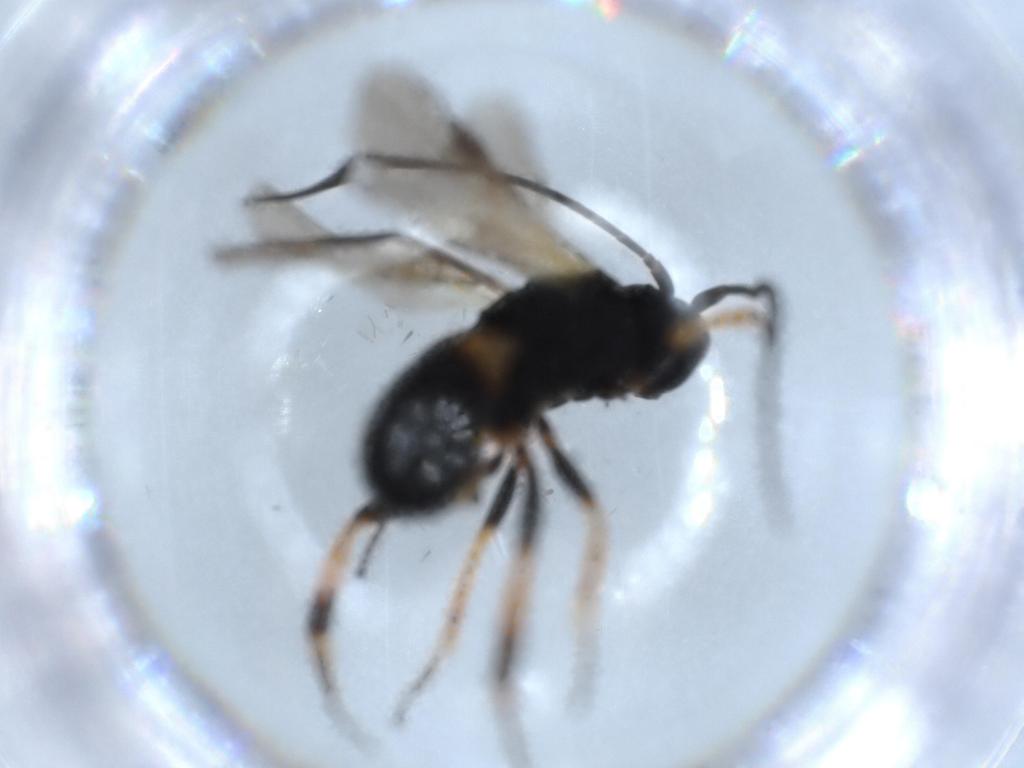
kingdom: Animalia
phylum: Arthropoda
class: Insecta
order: Hymenoptera
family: Braconidae
